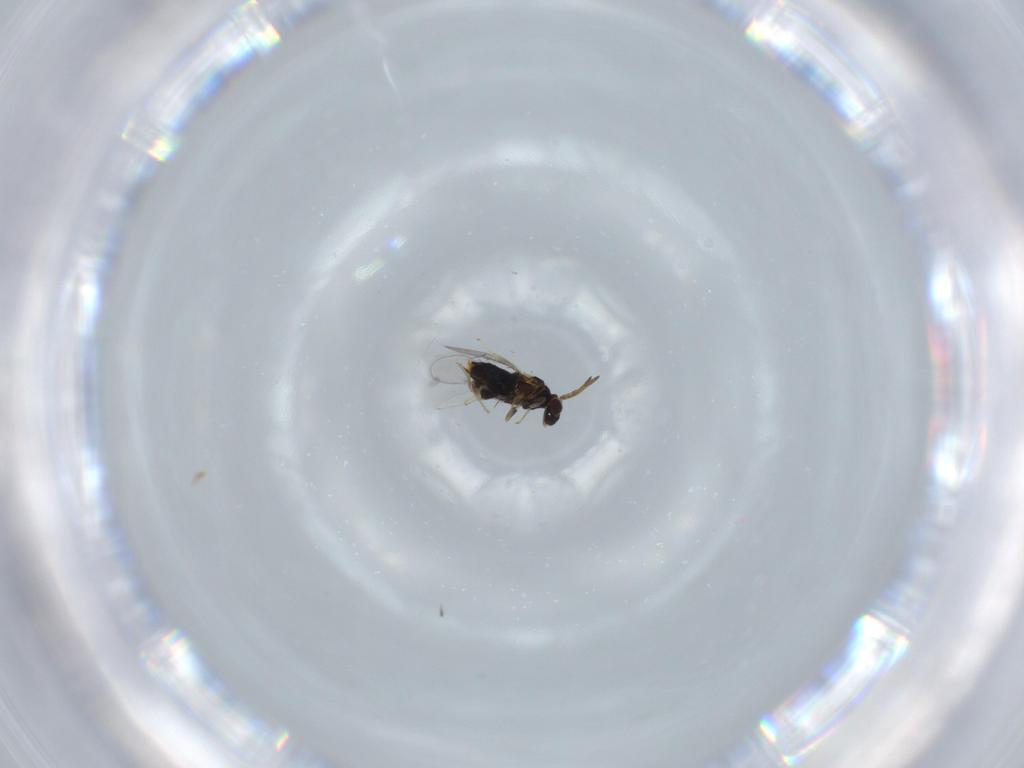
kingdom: Animalia
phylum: Arthropoda
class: Insecta
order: Hymenoptera
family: Aphelinidae
